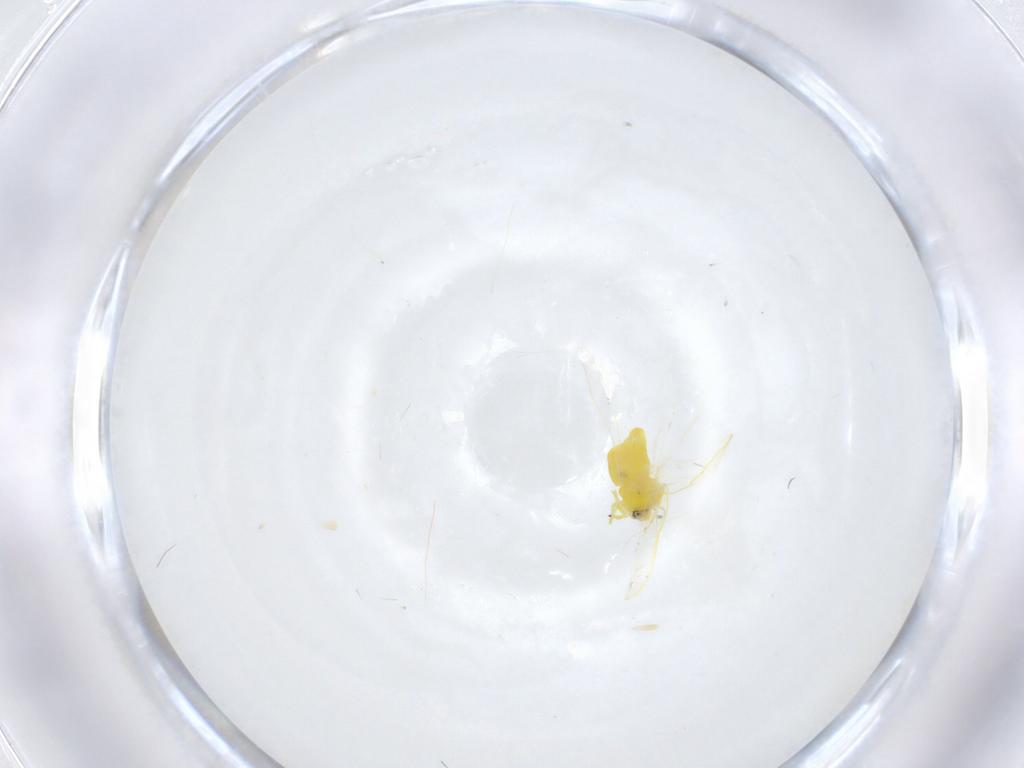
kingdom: Animalia
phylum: Arthropoda
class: Insecta
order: Hemiptera
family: Aleyrodidae
